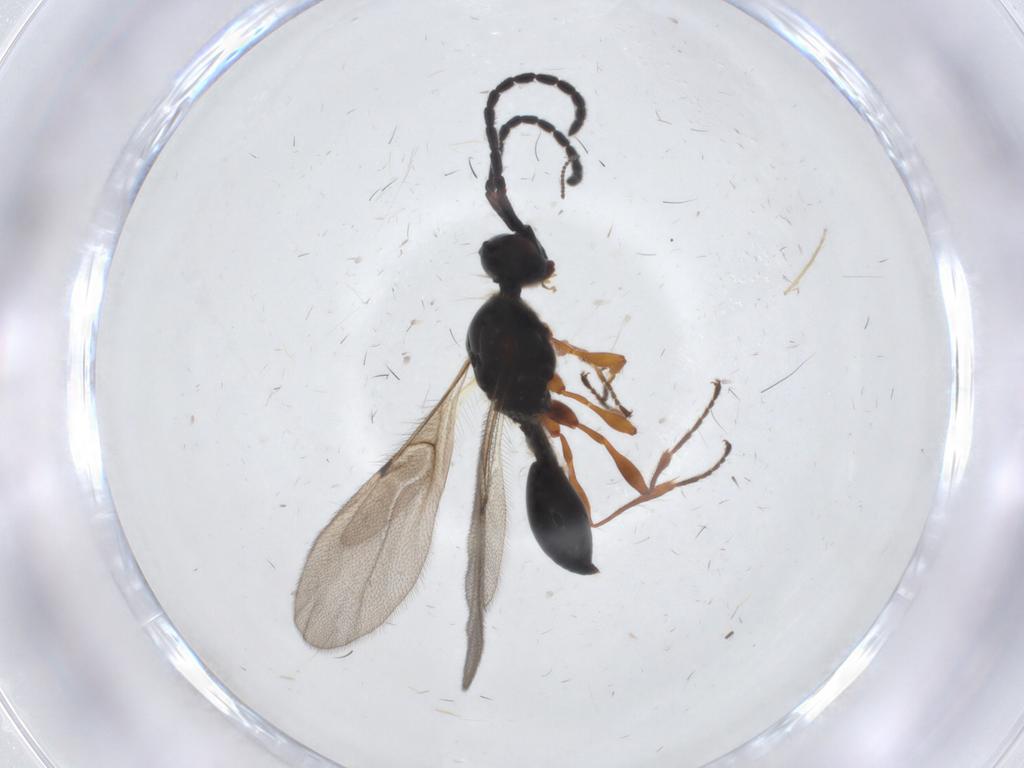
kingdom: Animalia
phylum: Arthropoda
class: Insecta
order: Hymenoptera
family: Diapriidae
